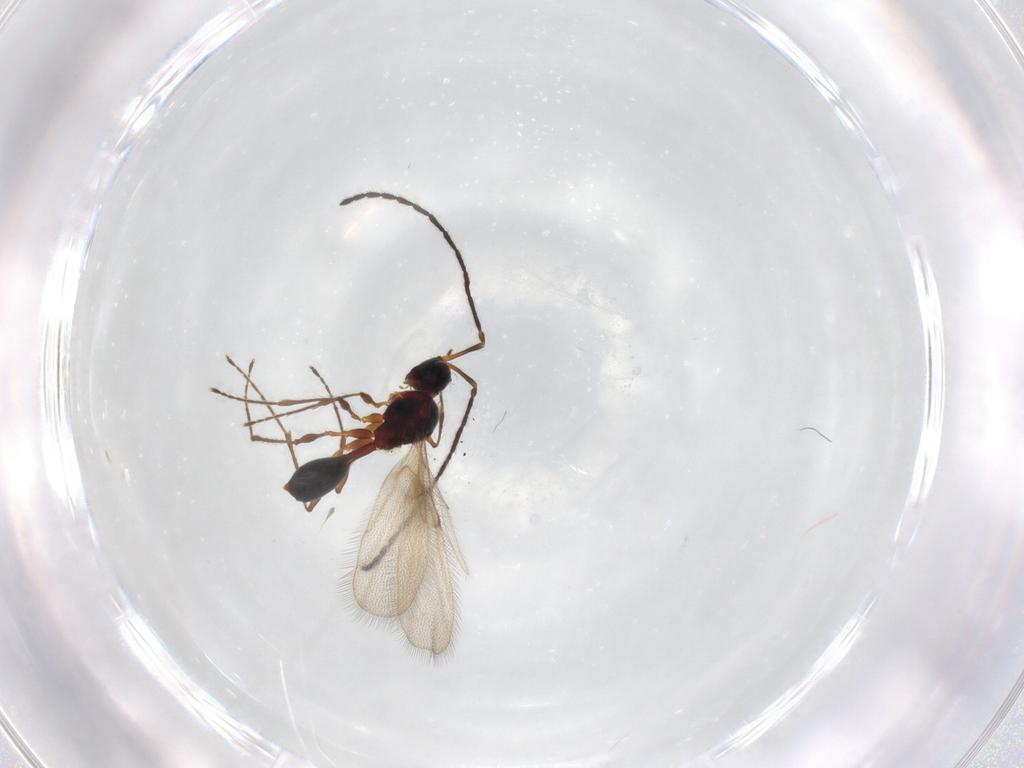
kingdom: Animalia
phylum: Arthropoda
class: Insecta
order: Hymenoptera
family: Diapriidae
